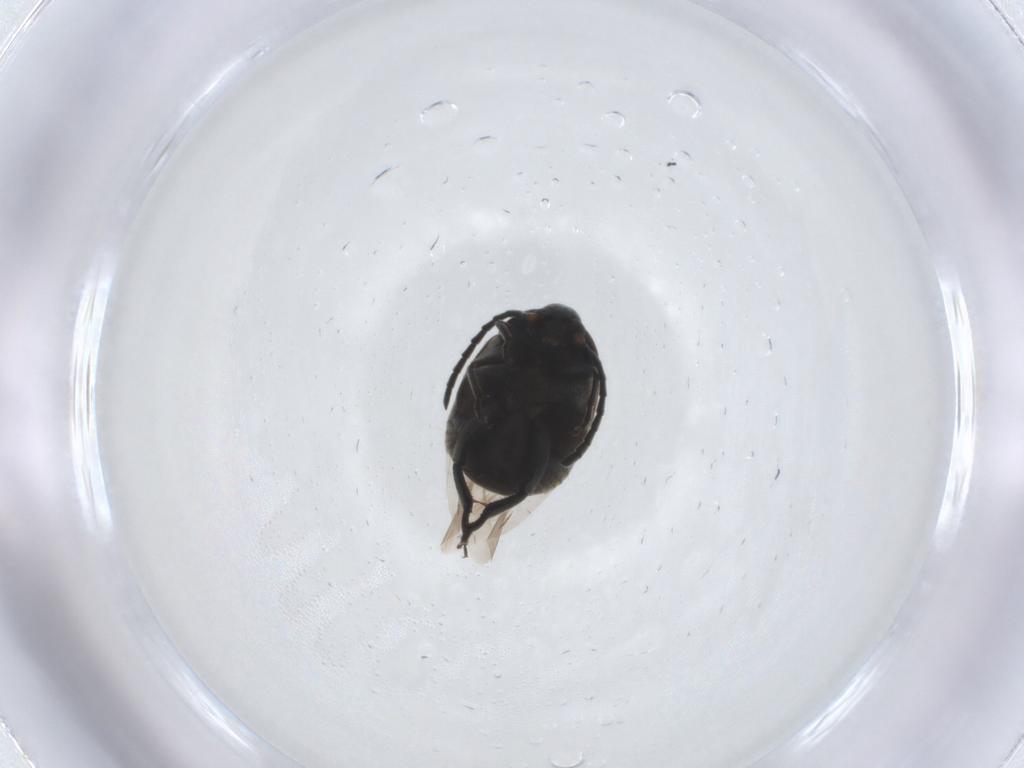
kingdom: Animalia
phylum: Arthropoda
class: Insecta
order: Coleoptera
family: Chrysomelidae
